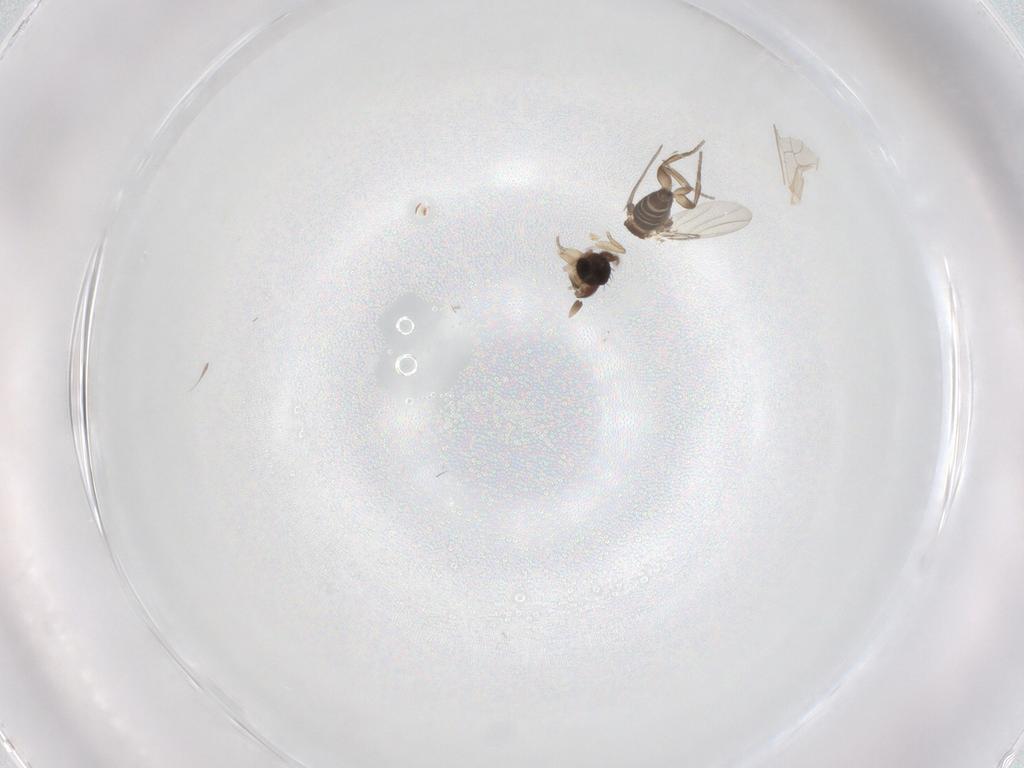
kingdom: Animalia
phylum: Arthropoda
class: Insecta
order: Diptera
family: Phoridae
